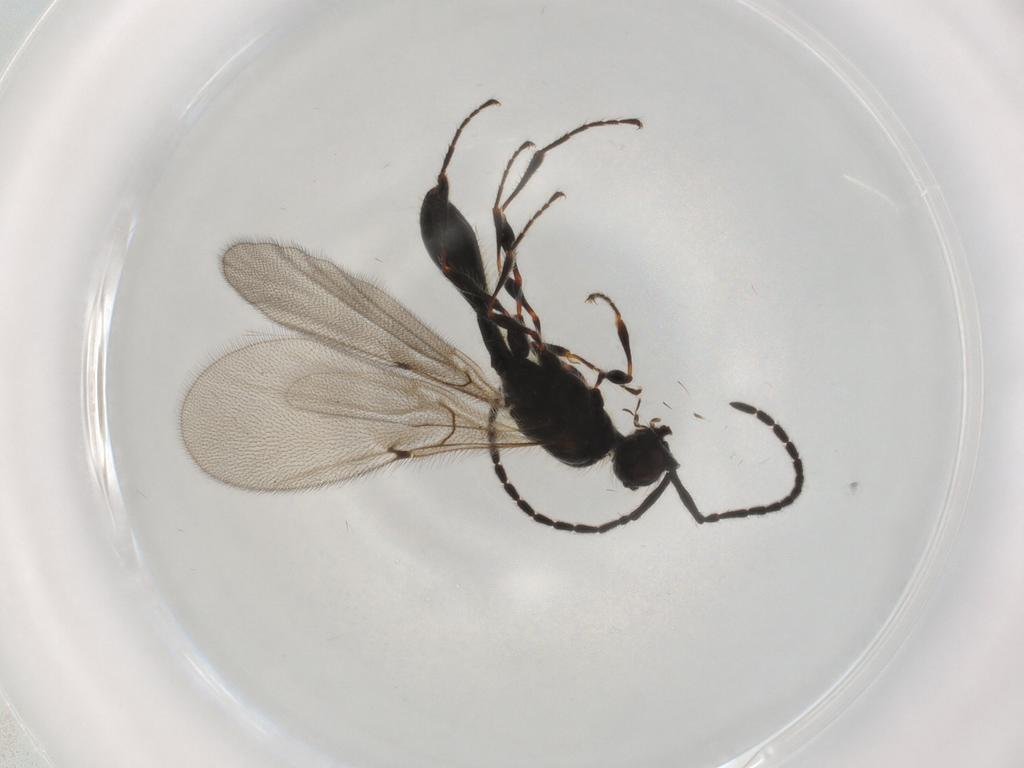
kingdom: Animalia
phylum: Arthropoda
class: Insecta
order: Hymenoptera
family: Diapriidae
